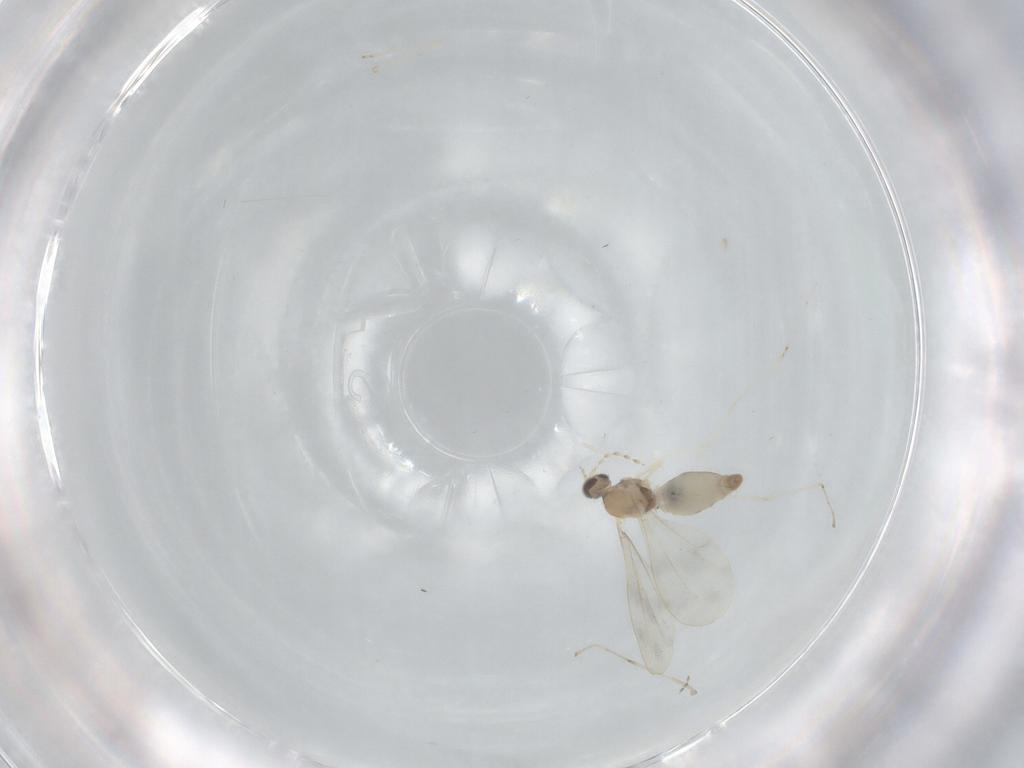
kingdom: Animalia
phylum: Arthropoda
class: Insecta
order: Diptera
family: Cecidomyiidae
